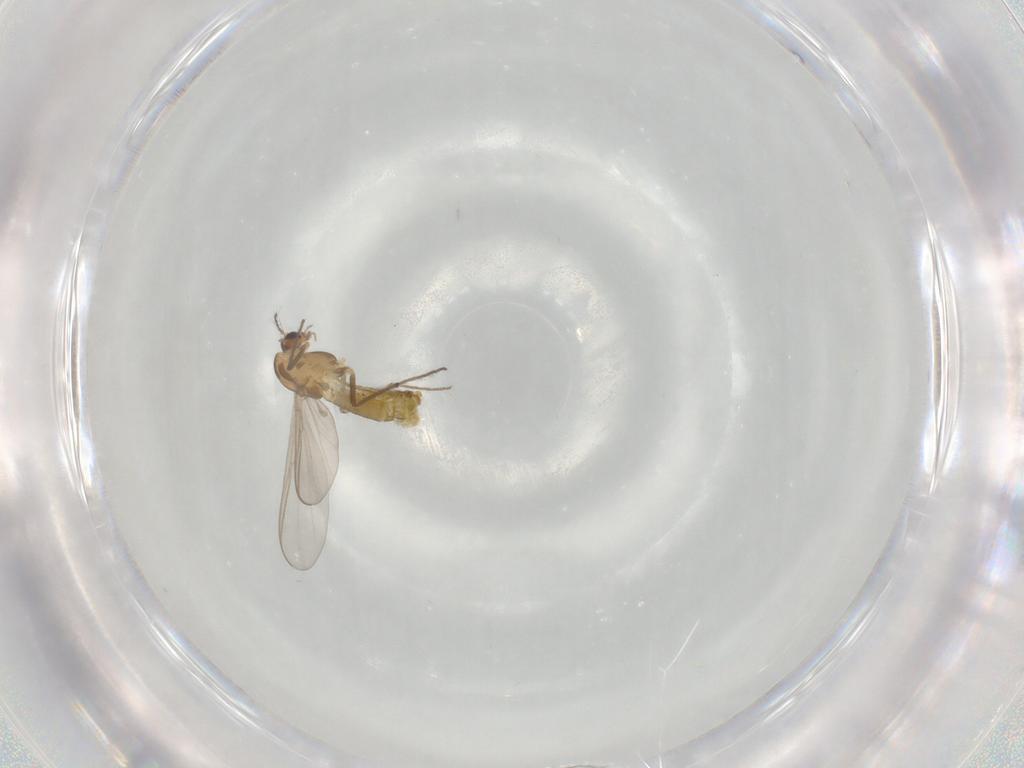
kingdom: Animalia
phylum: Arthropoda
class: Insecta
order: Diptera
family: Chironomidae
